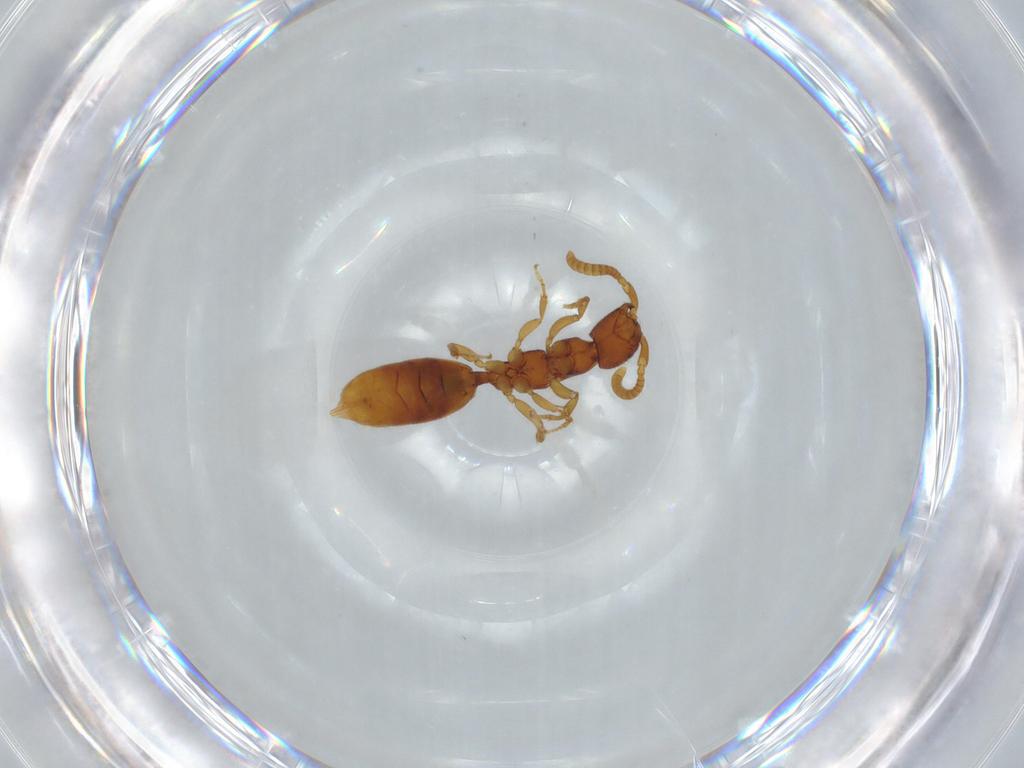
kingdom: Animalia
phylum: Arthropoda
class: Insecta
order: Hymenoptera
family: Bethylidae
